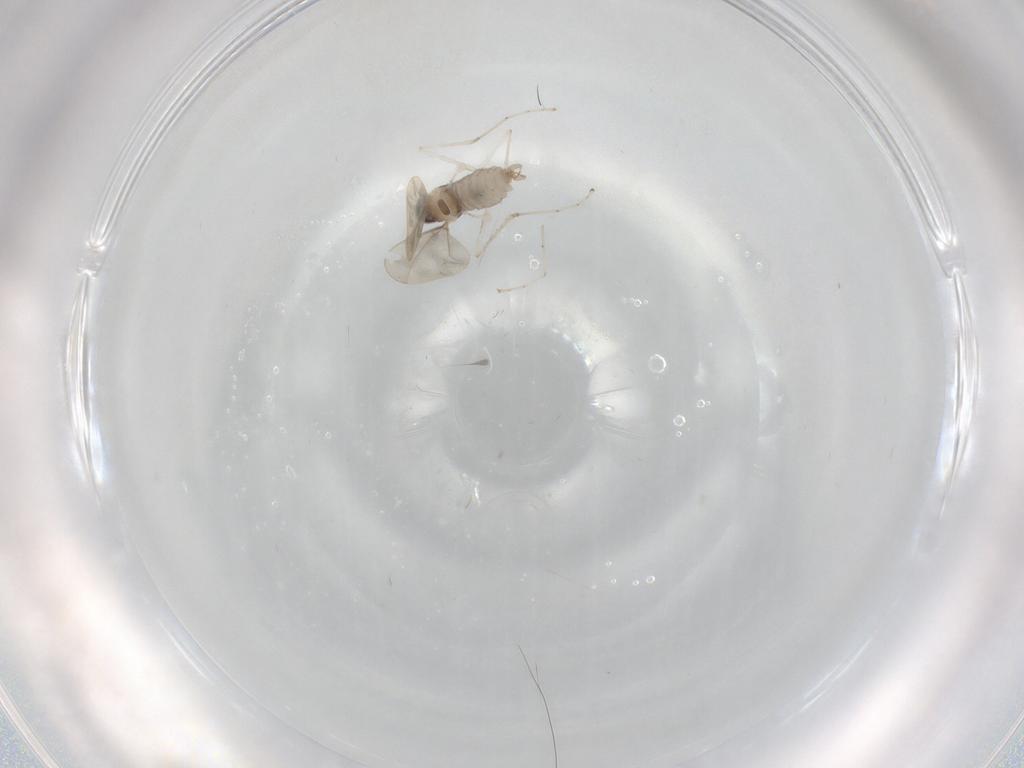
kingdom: Animalia
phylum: Arthropoda
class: Insecta
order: Diptera
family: Cecidomyiidae
